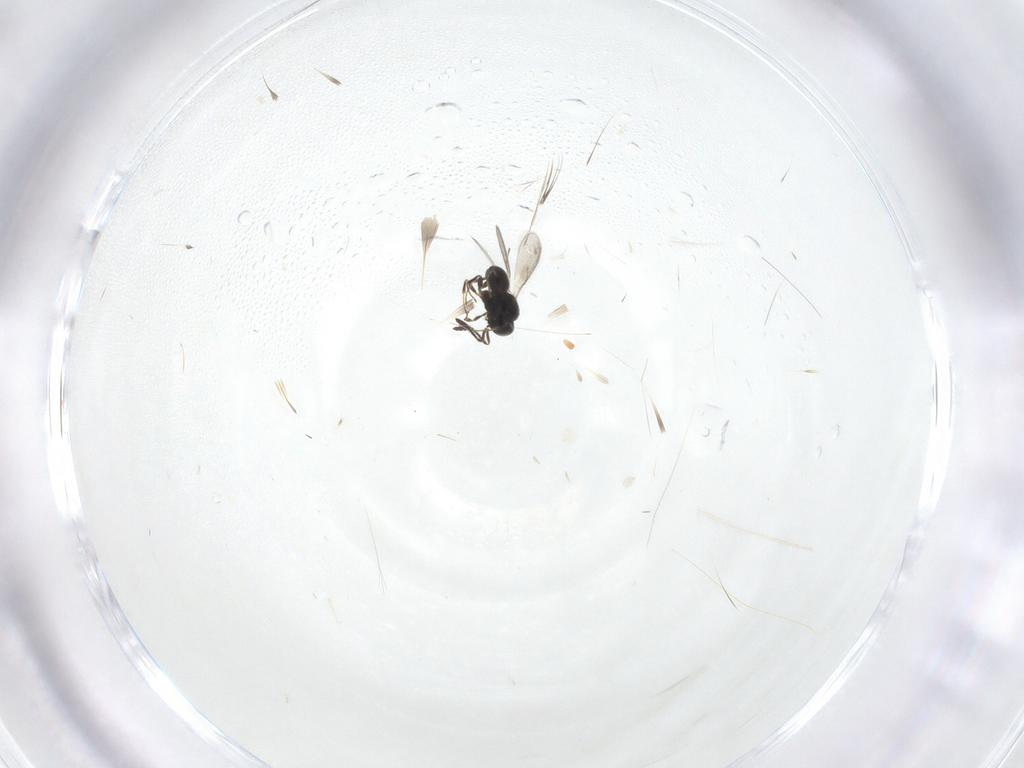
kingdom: Animalia
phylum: Arthropoda
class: Insecta
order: Hymenoptera
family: Scelionidae
